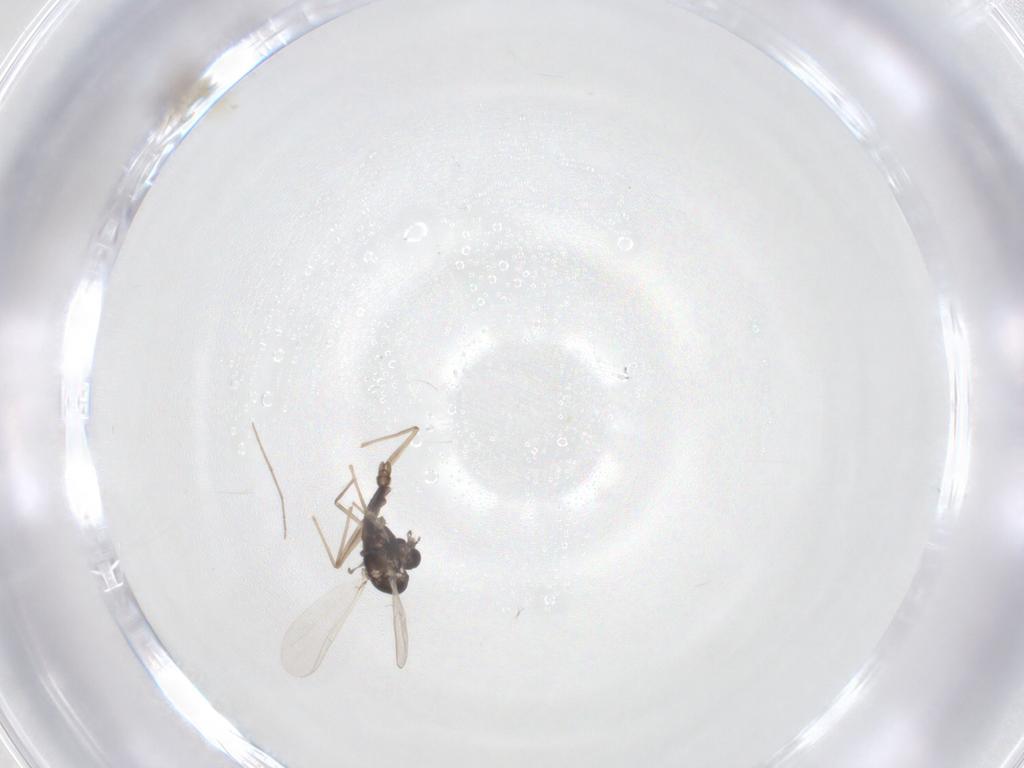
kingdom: Animalia
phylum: Arthropoda
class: Insecta
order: Diptera
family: Chironomidae
